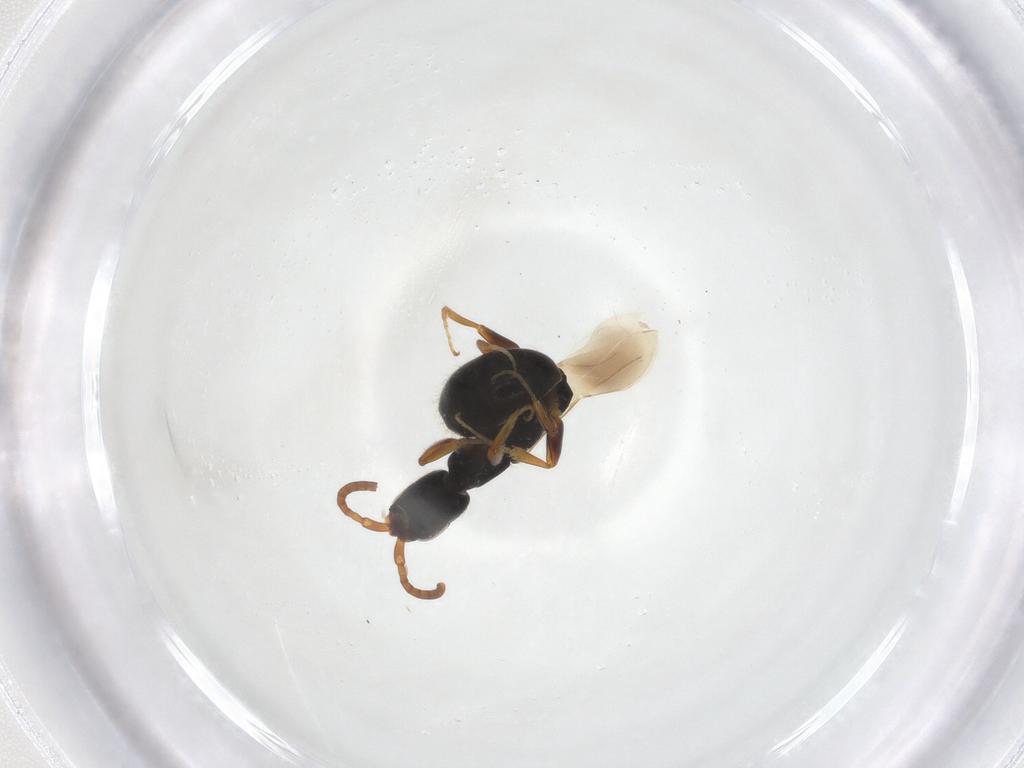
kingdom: Animalia
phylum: Arthropoda
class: Insecta
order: Hymenoptera
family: Bethylidae
